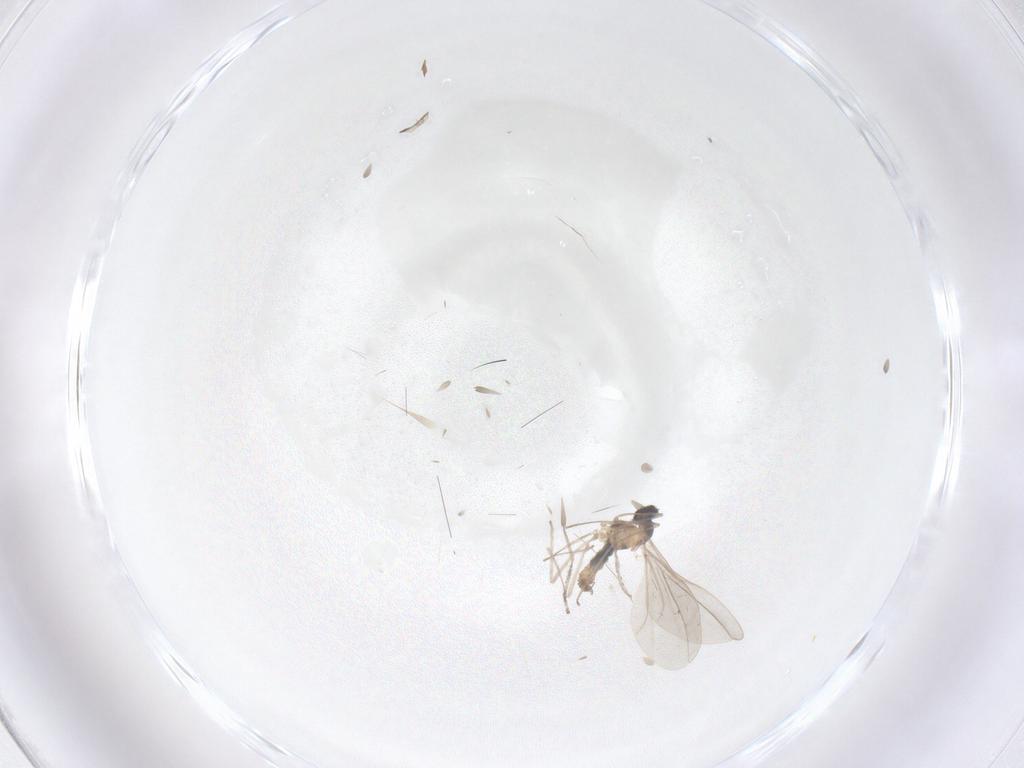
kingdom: Animalia
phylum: Arthropoda
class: Insecta
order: Diptera
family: Cecidomyiidae
